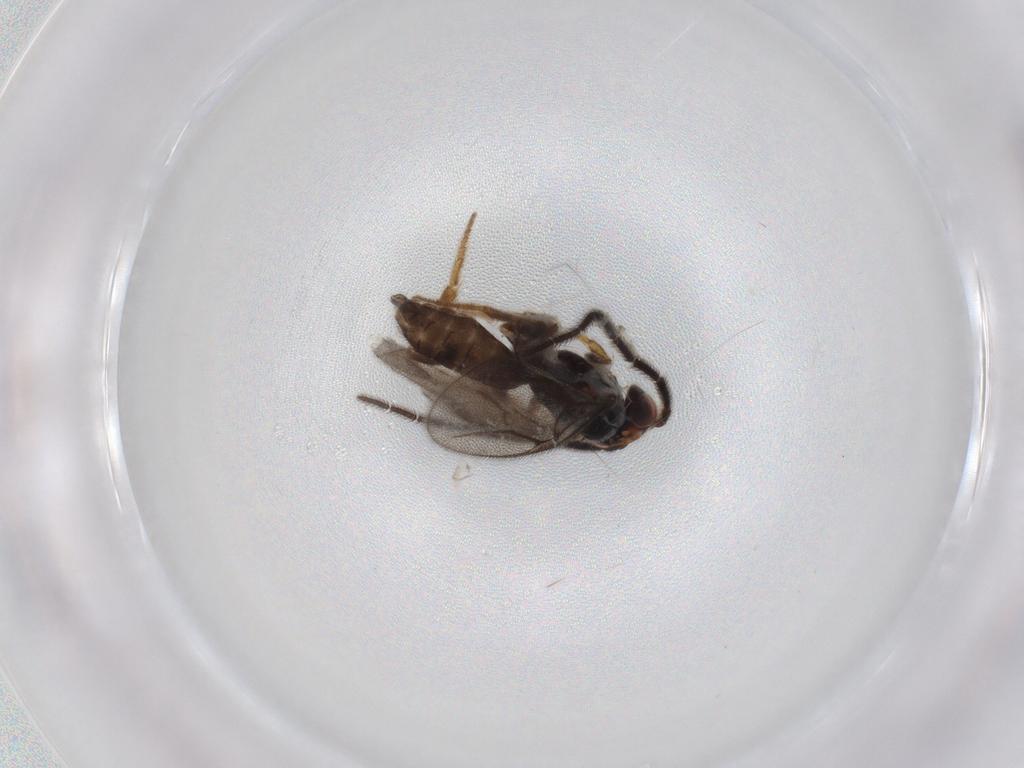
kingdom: Animalia
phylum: Arthropoda
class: Insecta
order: Hymenoptera
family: Dryinidae
